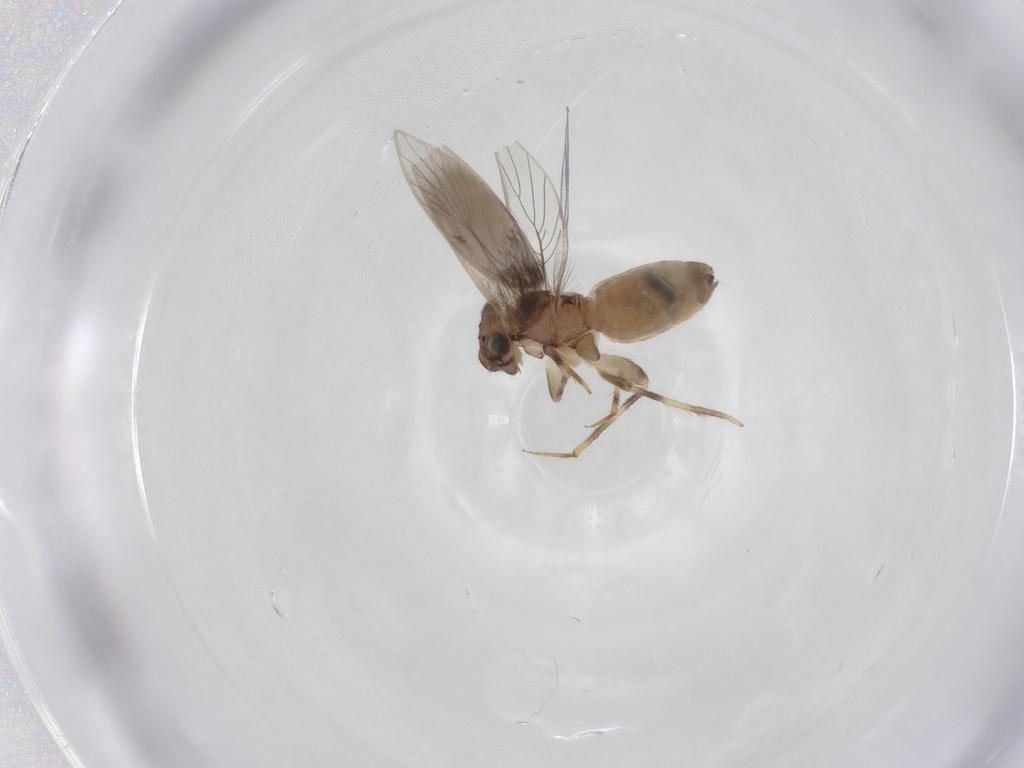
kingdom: Animalia
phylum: Arthropoda
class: Insecta
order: Psocodea
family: Lepidopsocidae
